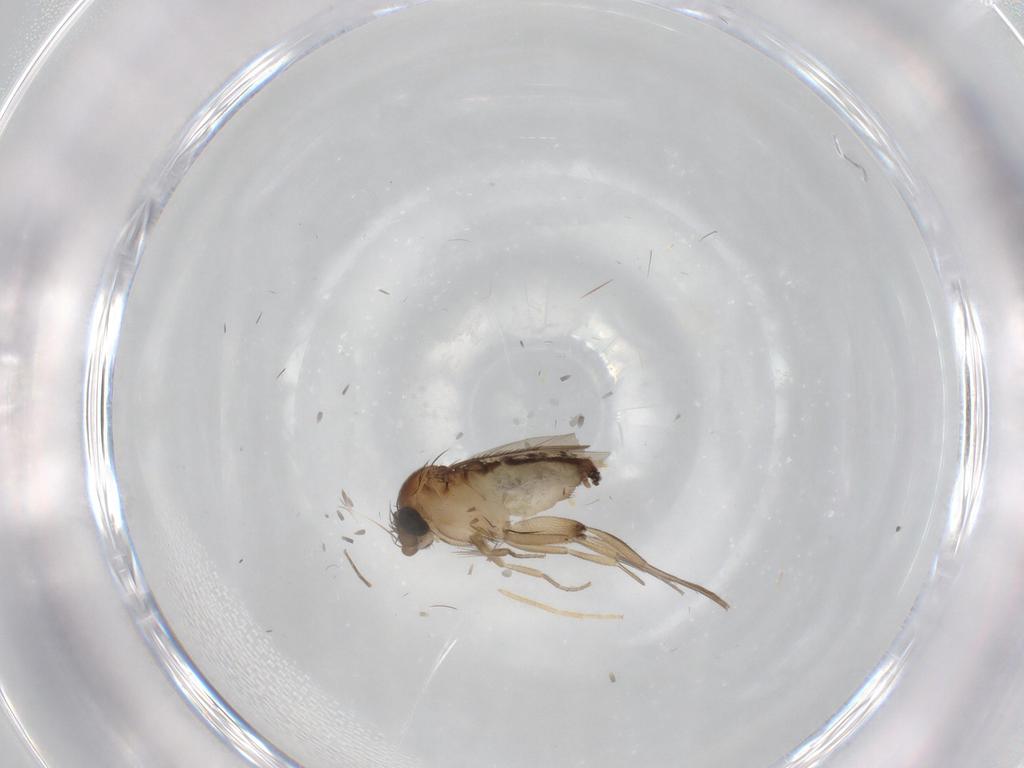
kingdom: Animalia
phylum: Arthropoda
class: Insecta
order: Diptera
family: Phoridae
